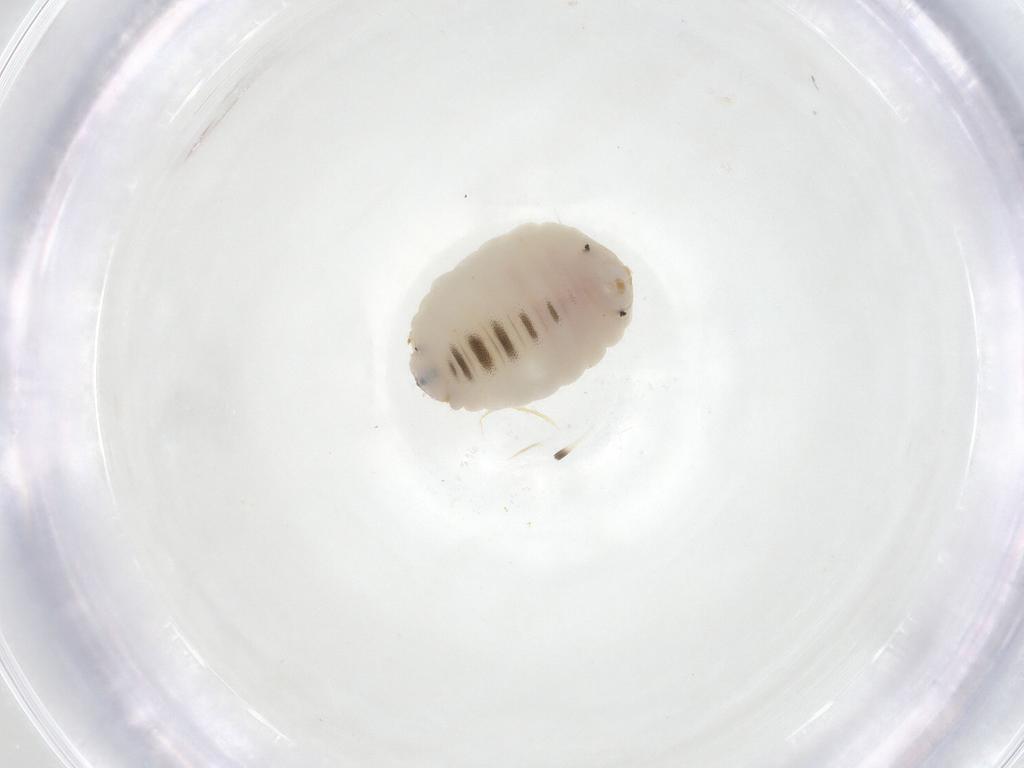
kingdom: Animalia
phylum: Arthropoda
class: Insecta
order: Diptera
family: Fergusoninidae
